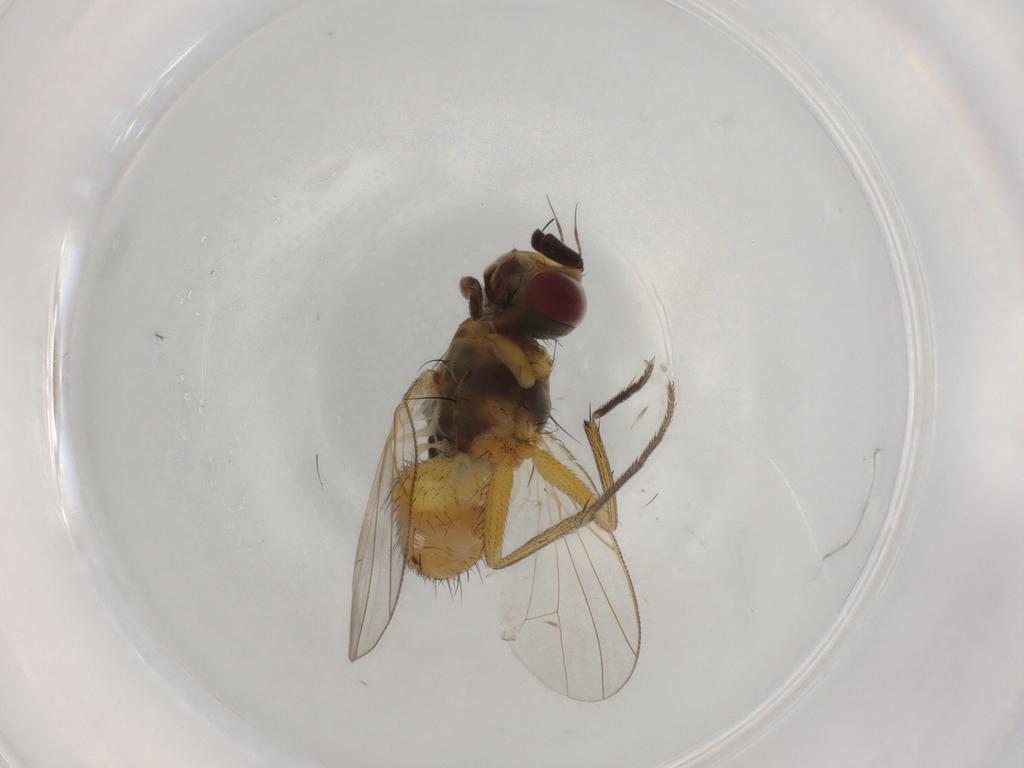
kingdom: Animalia
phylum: Arthropoda
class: Insecta
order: Diptera
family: Muscidae
